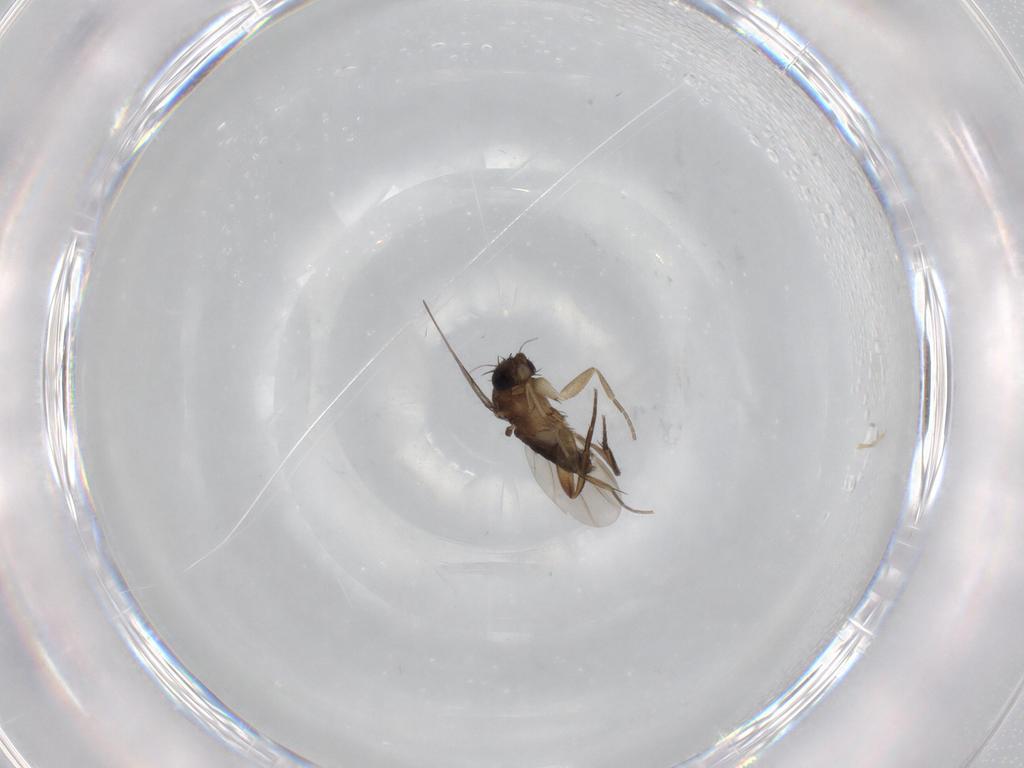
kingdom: Animalia
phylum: Arthropoda
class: Insecta
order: Diptera
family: Phoridae
